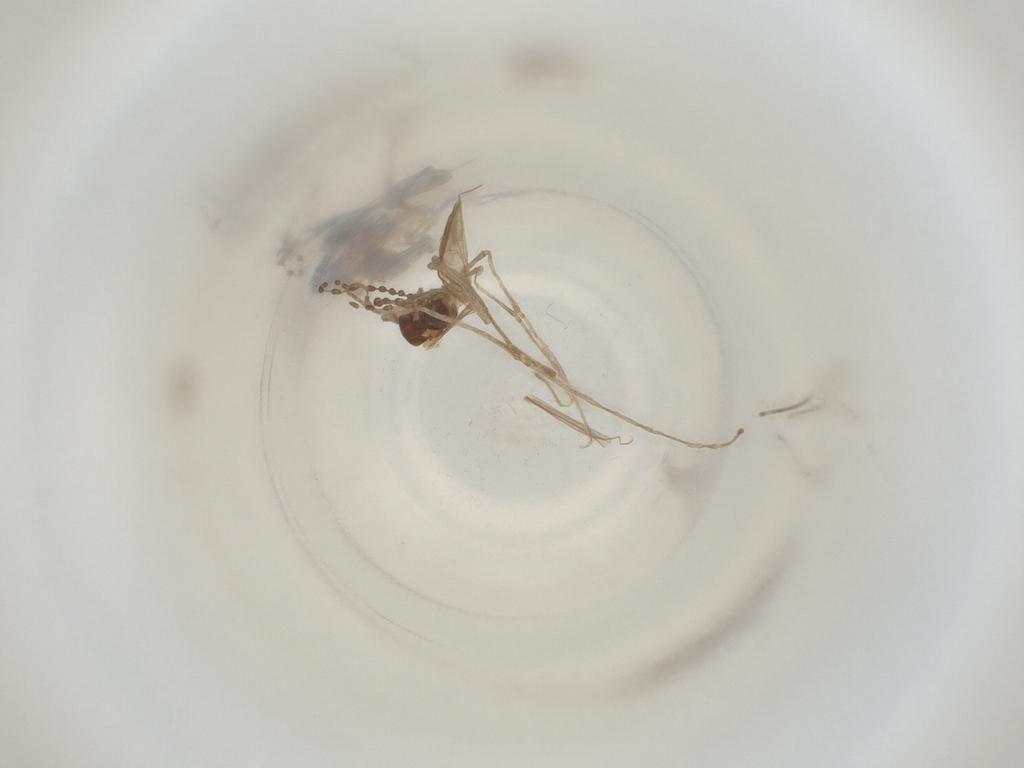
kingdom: Animalia
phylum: Arthropoda
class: Insecta
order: Diptera
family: Cecidomyiidae
